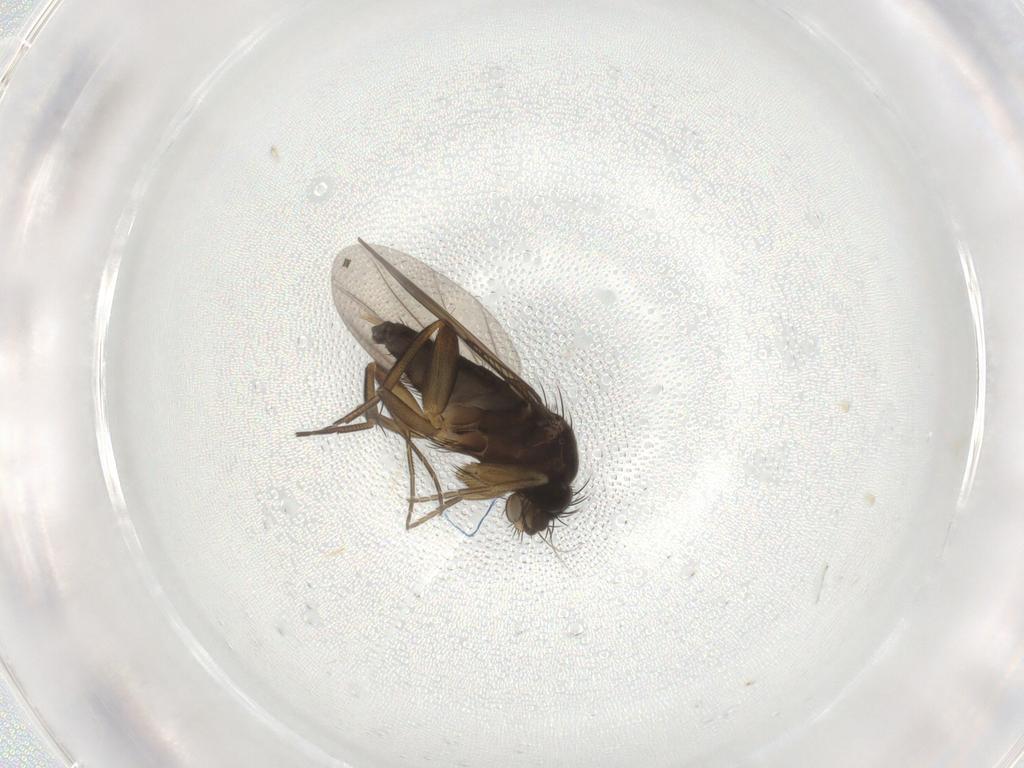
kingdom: Animalia
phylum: Arthropoda
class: Insecta
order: Diptera
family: Phoridae
